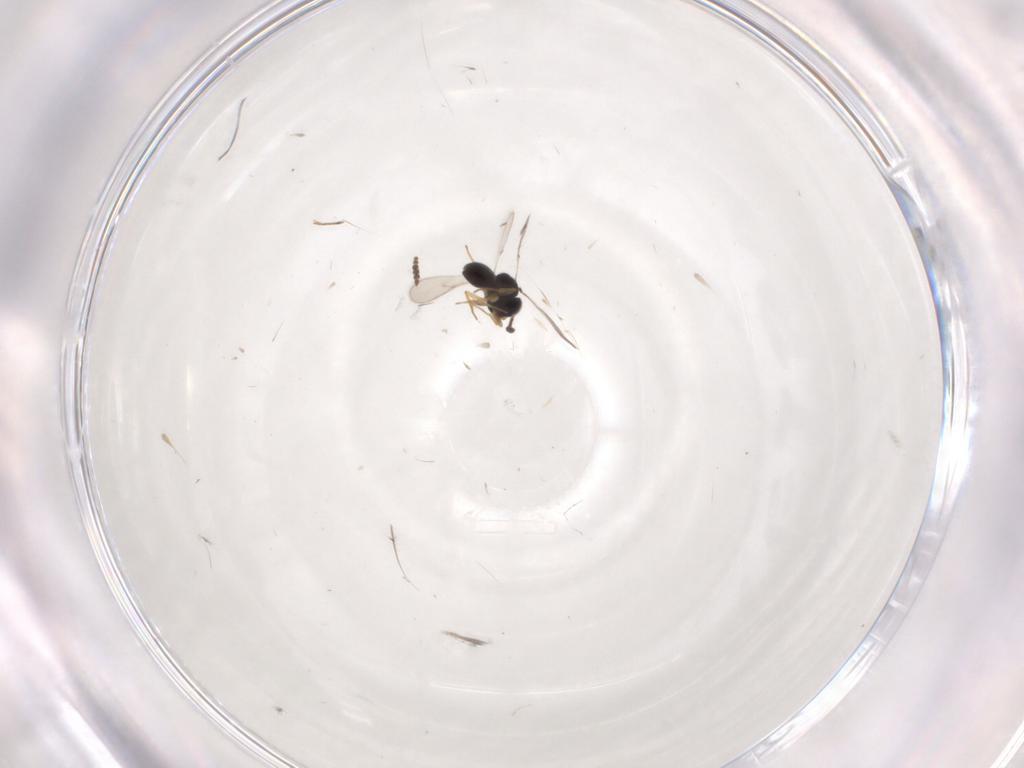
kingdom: Animalia
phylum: Arthropoda
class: Insecta
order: Hymenoptera
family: Scelionidae
